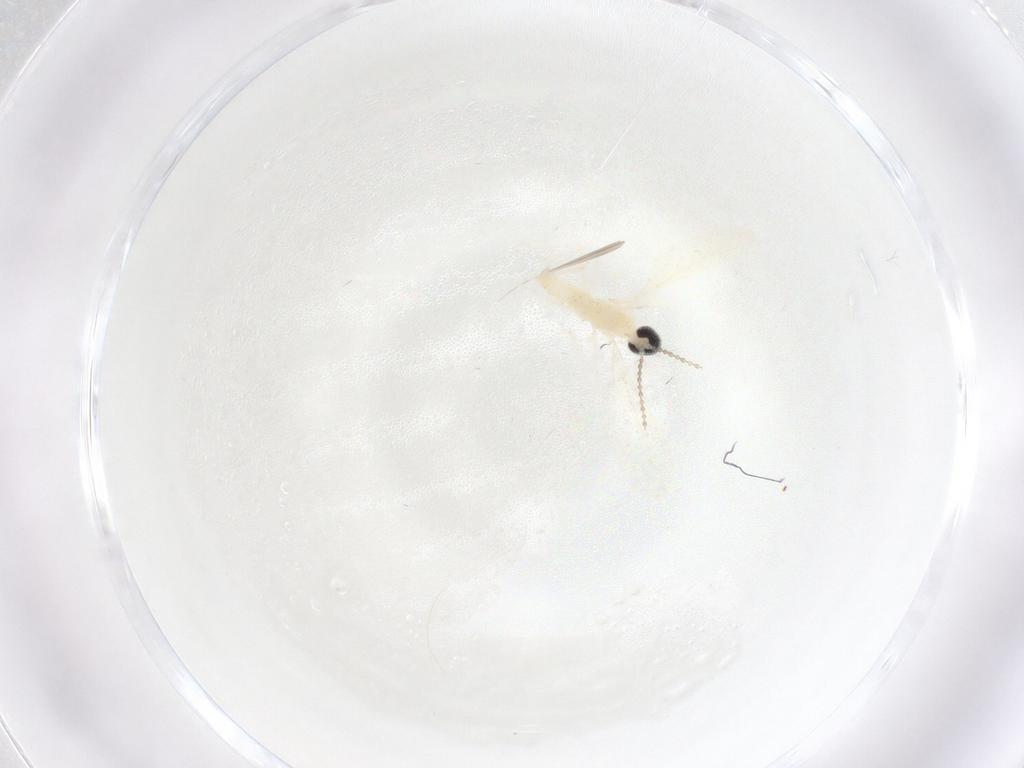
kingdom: Animalia
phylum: Arthropoda
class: Insecta
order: Diptera
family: Cecidomyiidae
